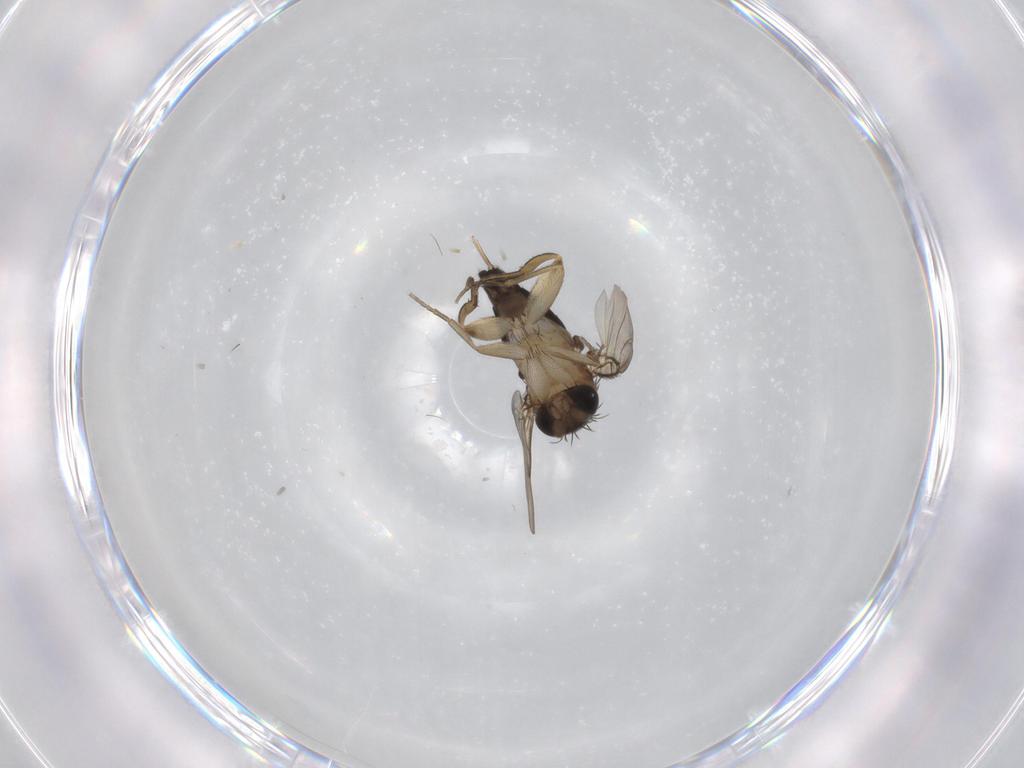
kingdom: Animalia
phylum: Arthropoda
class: Insecta
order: Diptera
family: Phoridae
